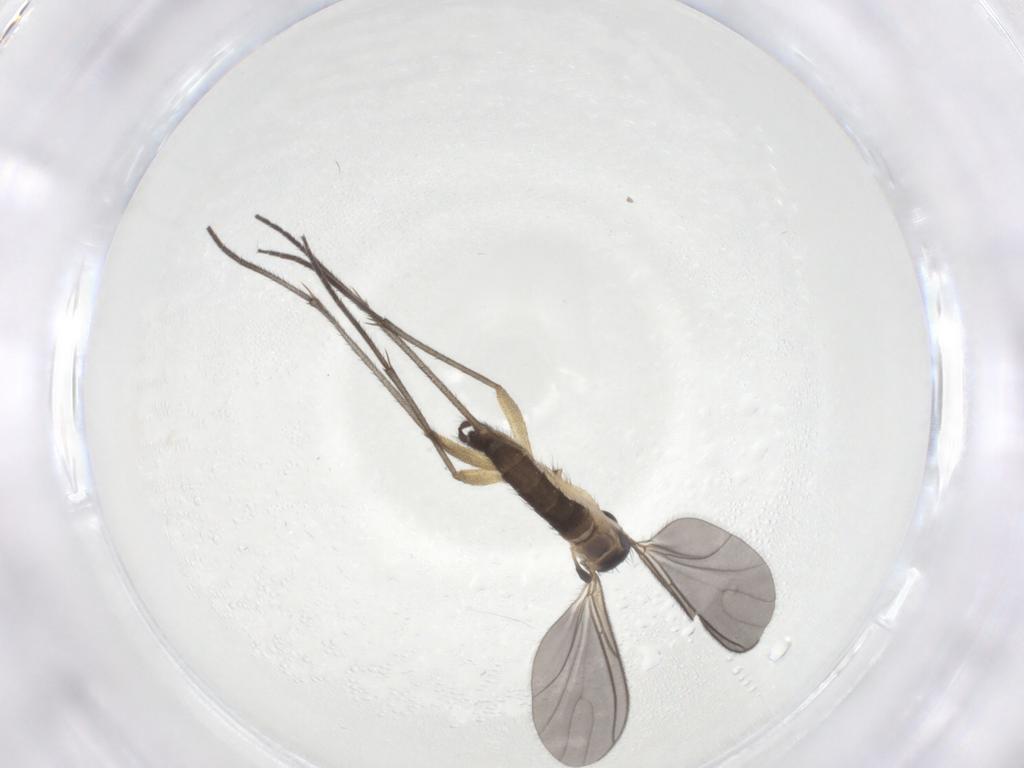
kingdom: Animalia
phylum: Arthropoda
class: Insecta
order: Diptera
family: Sciaridae
